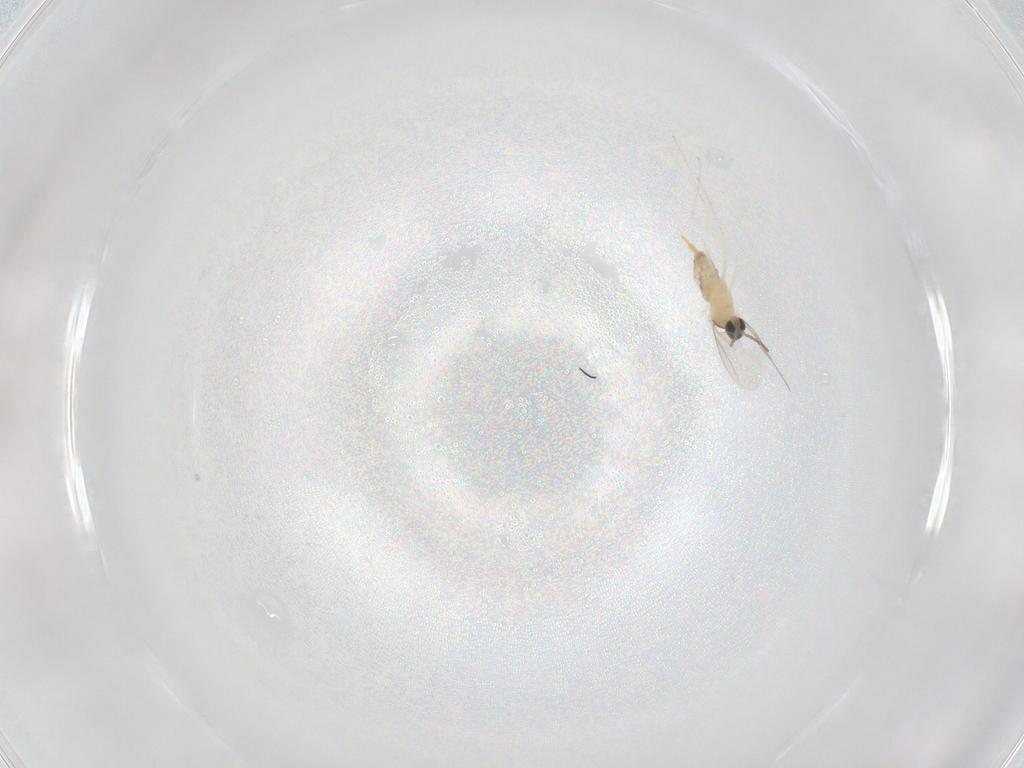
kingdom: Animalia
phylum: Arthropoda
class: Insecta
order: Diptera
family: Cecidomyiidae
